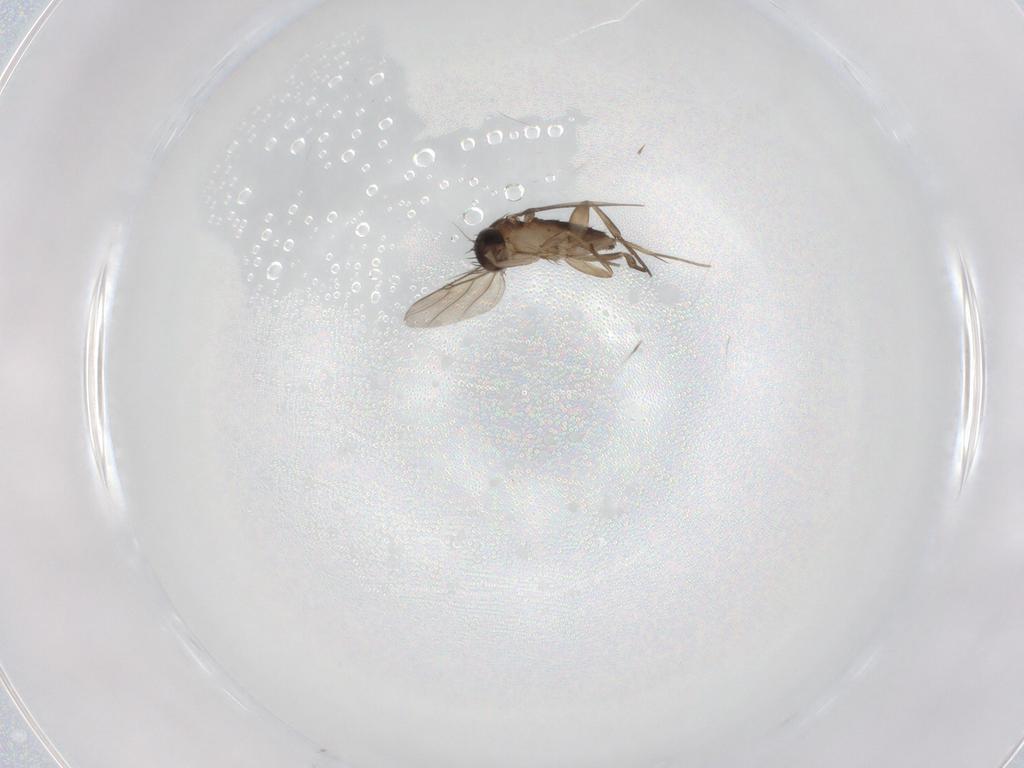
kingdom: Animalia
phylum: Arthropoda
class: Insecta
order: Diptera
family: Phoridae
